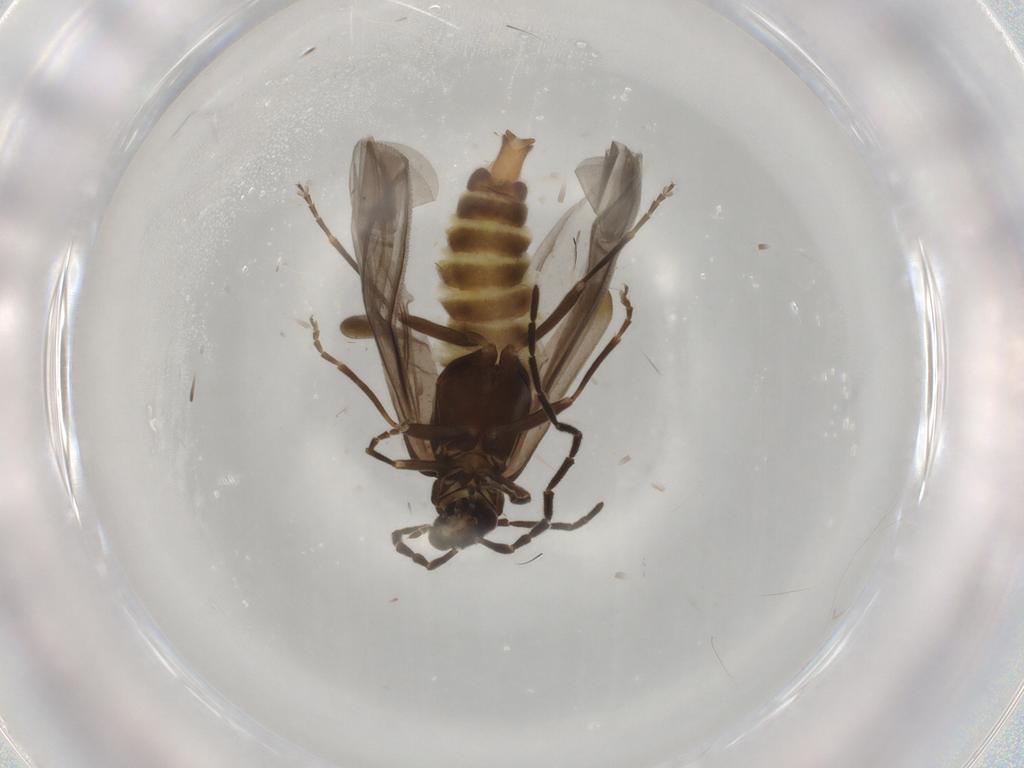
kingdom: Animalia
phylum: Arthropoda
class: Insecta
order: Coleoptera
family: Cantharidae
